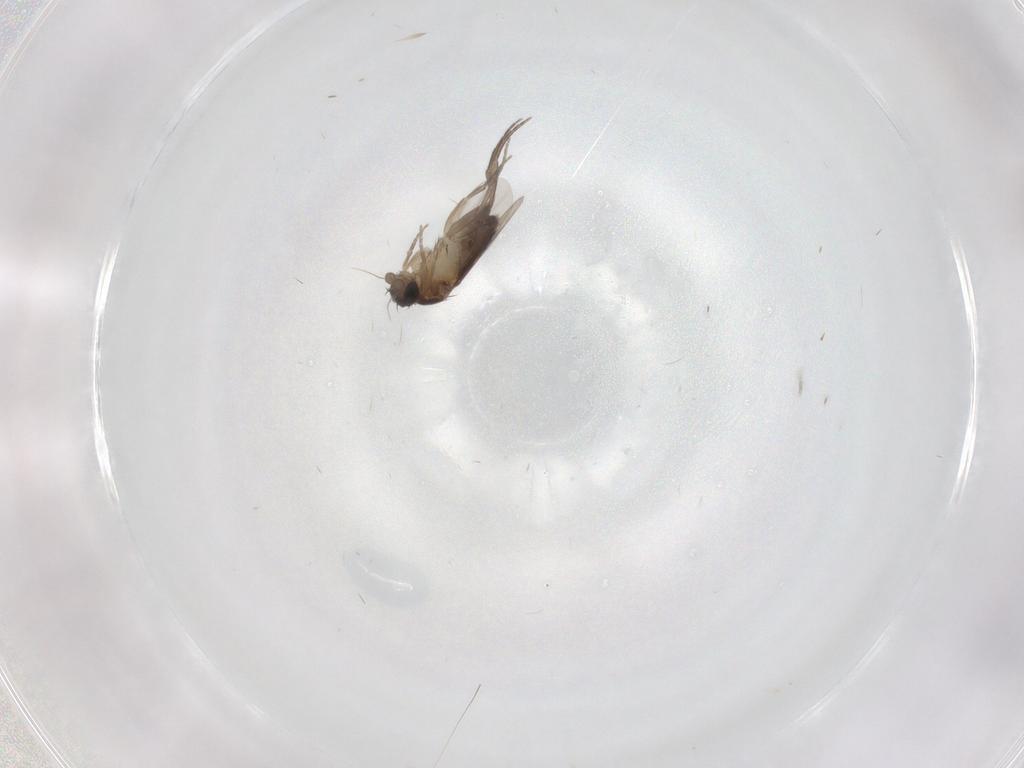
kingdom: Animalia
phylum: Arthropoda
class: Insecta
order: Diptera
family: Phoridae
